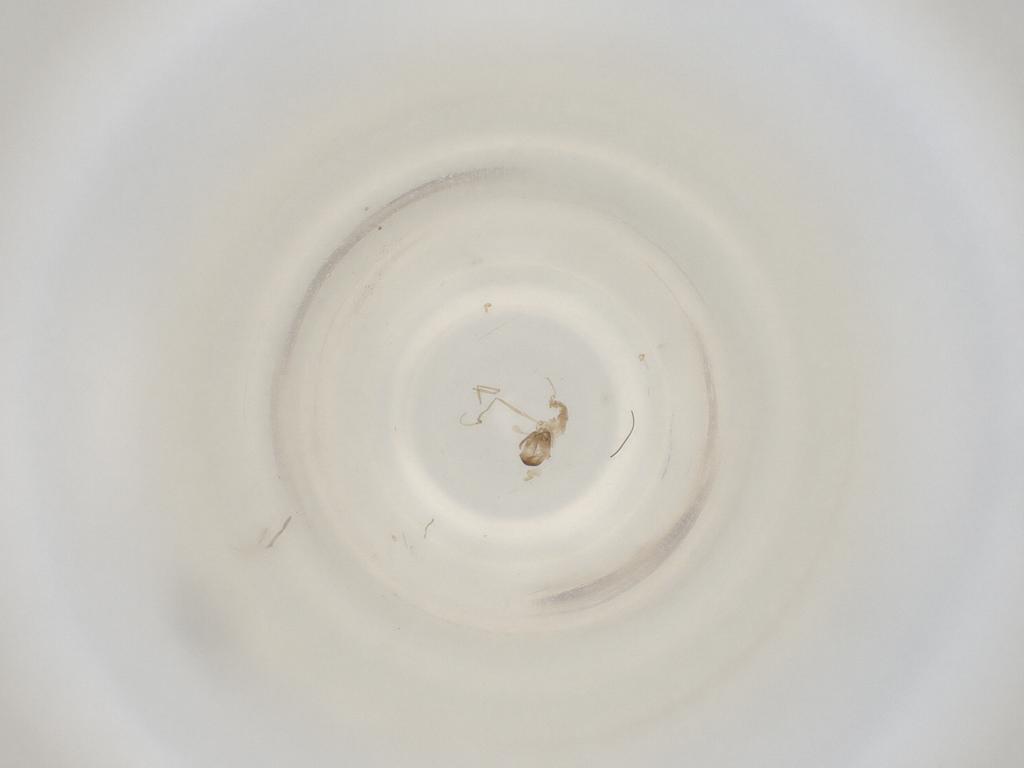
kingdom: Animalia
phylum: Arthropoda
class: Insecta
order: Diptera
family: Cecidomyiidae
